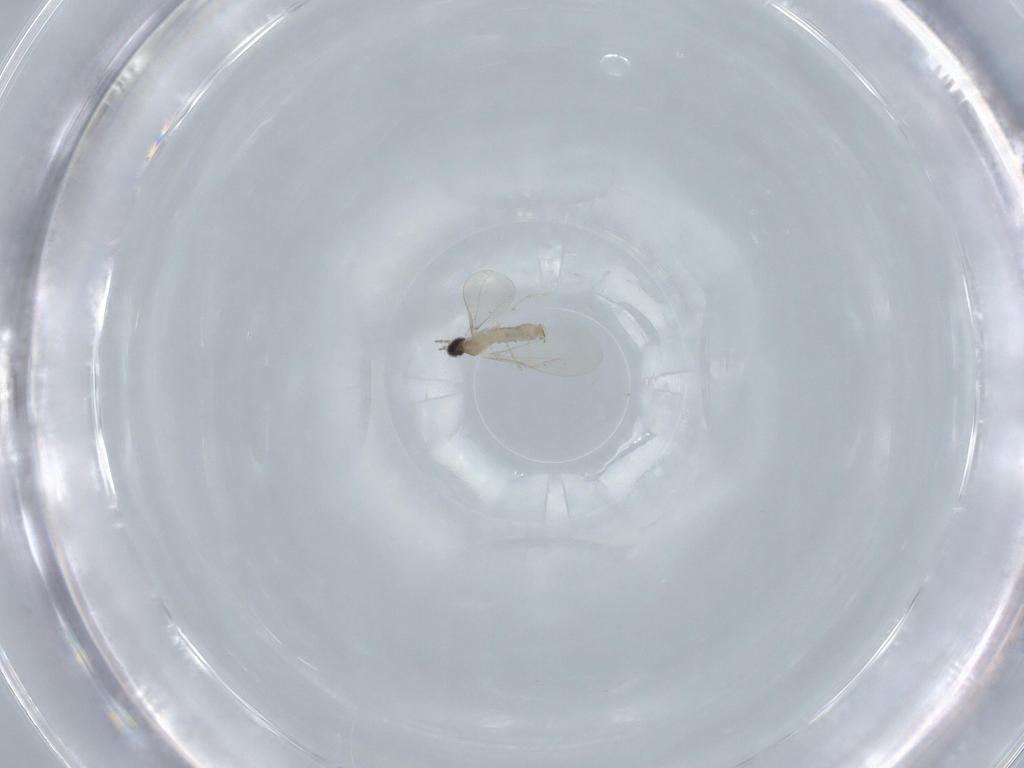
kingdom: Animalia
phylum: Arthropoda
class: Insecta
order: Diptera
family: Cecidomyiidae
